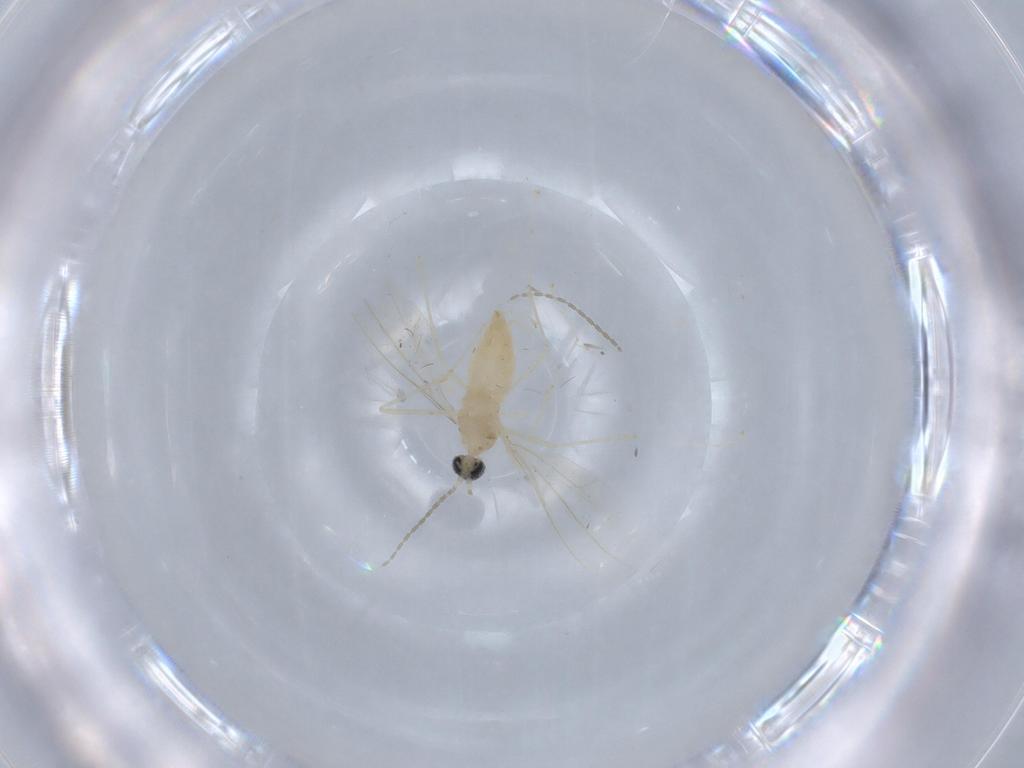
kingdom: Animalia
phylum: Arthropoda
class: Insecta
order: Diptera
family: Cecidomyiidae
